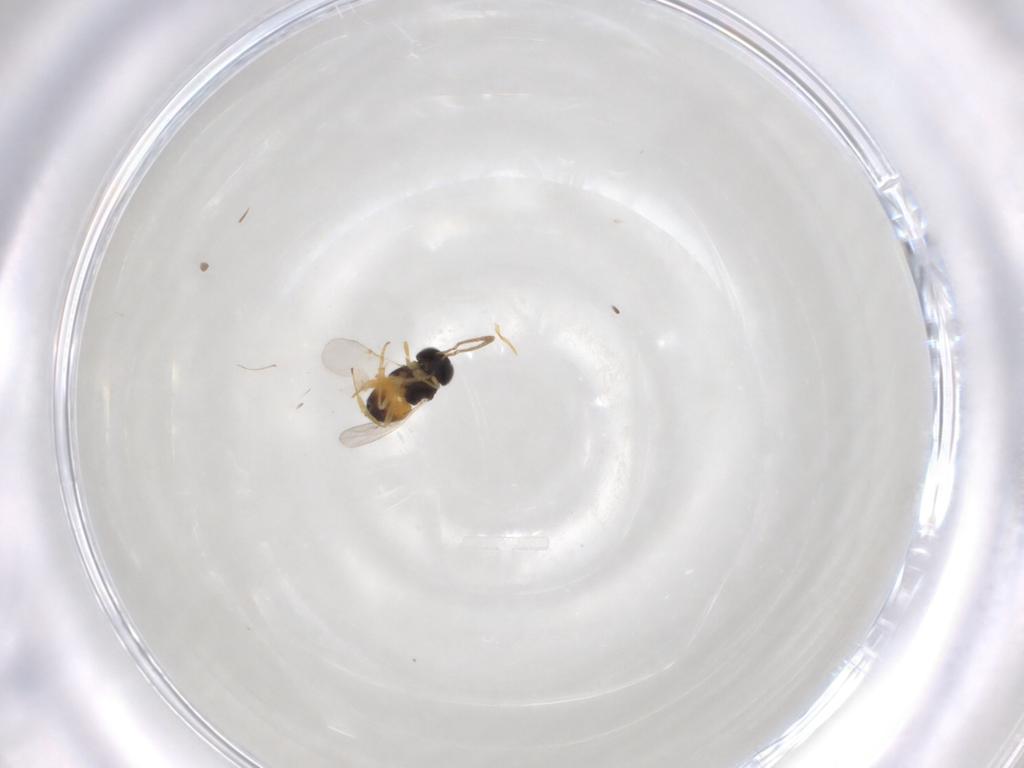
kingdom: Animalia
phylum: Arthropoda
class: Insecta
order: Hymenoptera
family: Encyrtidae
